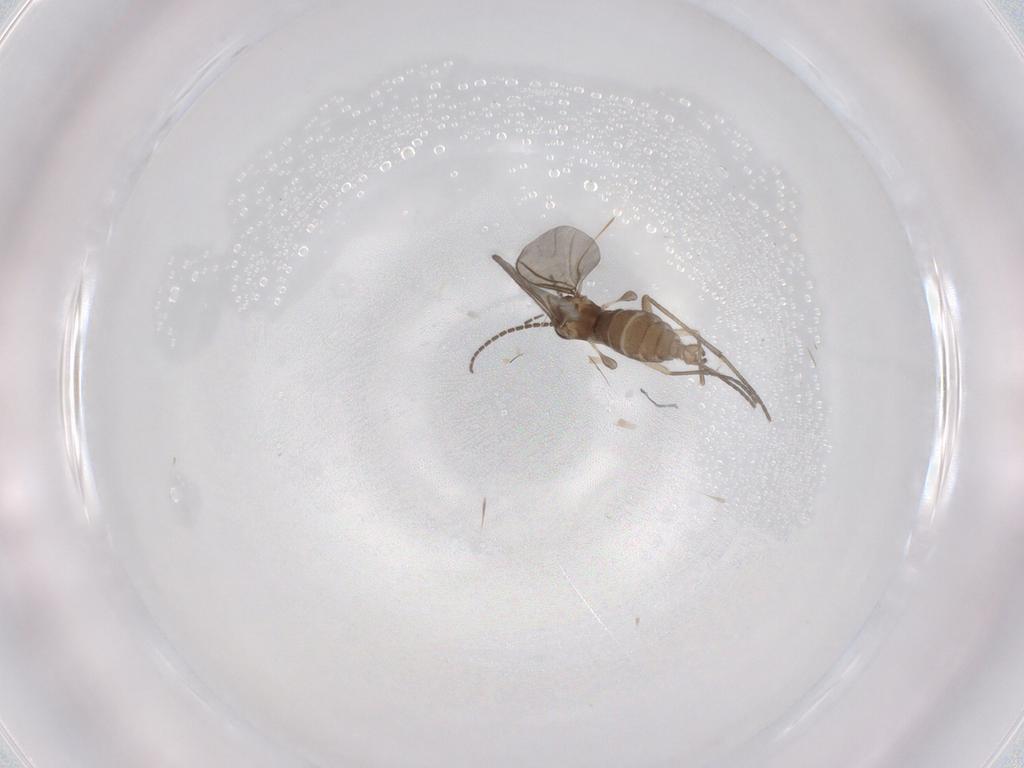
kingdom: Animalia
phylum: Arthropoda
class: Insecta
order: Diptera
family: Sciaridae
